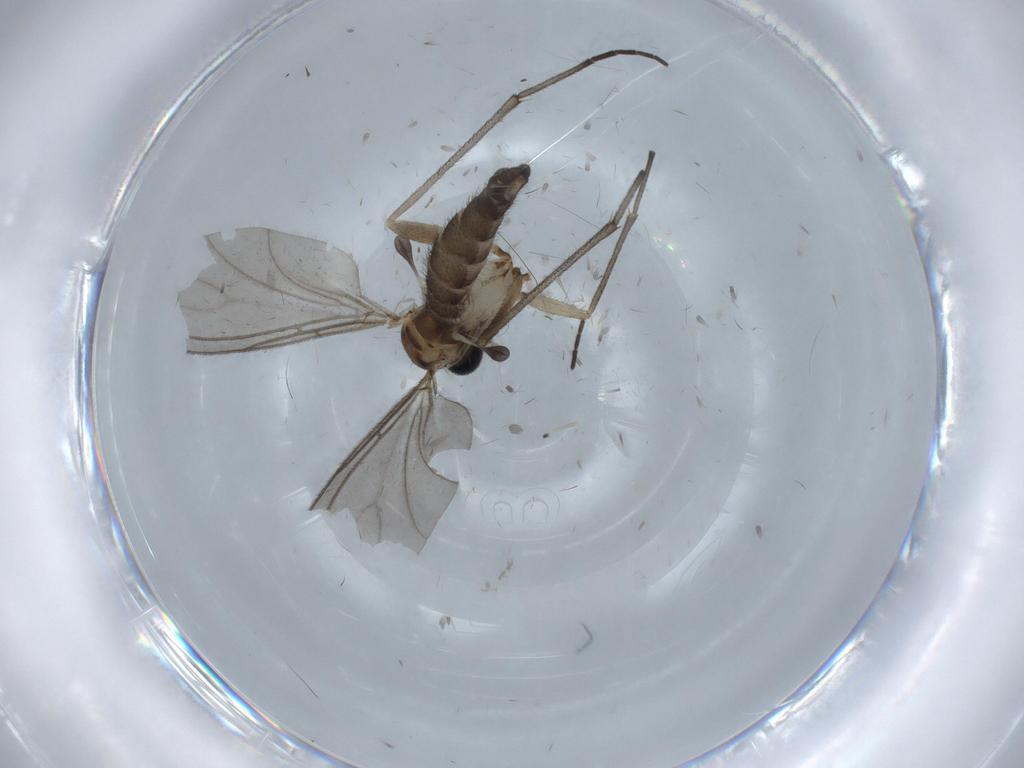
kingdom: Animalia
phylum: Arthropoda
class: Insecta
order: Diptera
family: Sciaridae
